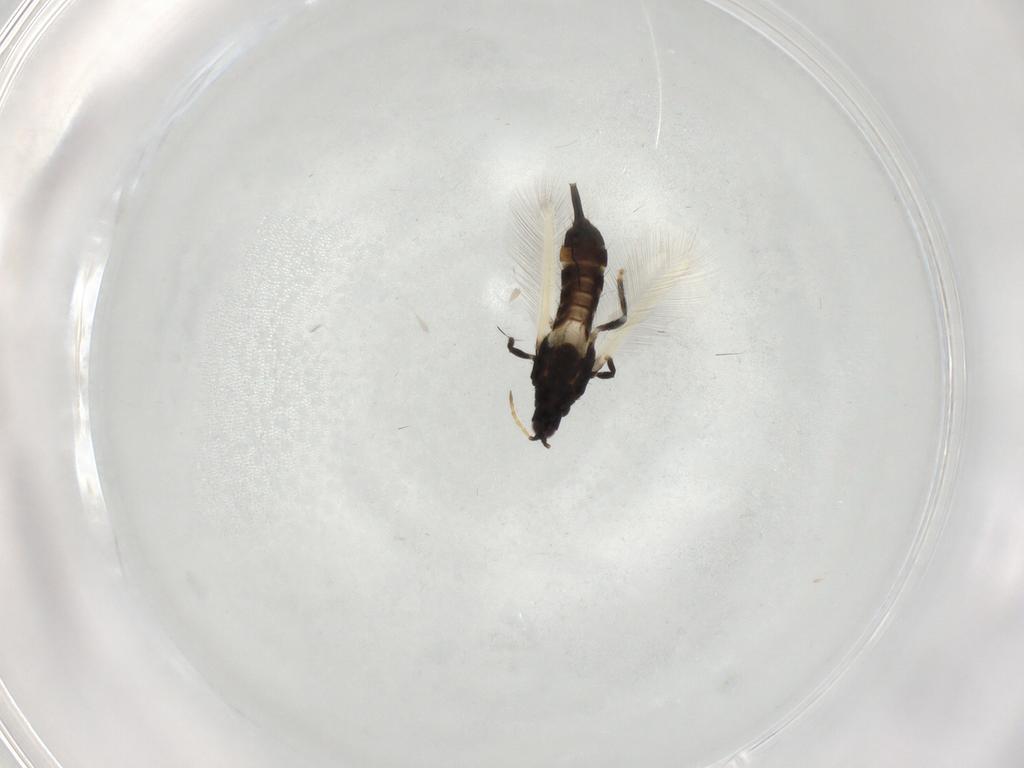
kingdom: Animalia
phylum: Arthropoda
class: Insecta
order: Thysanoptera
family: Phlaeothripidae
